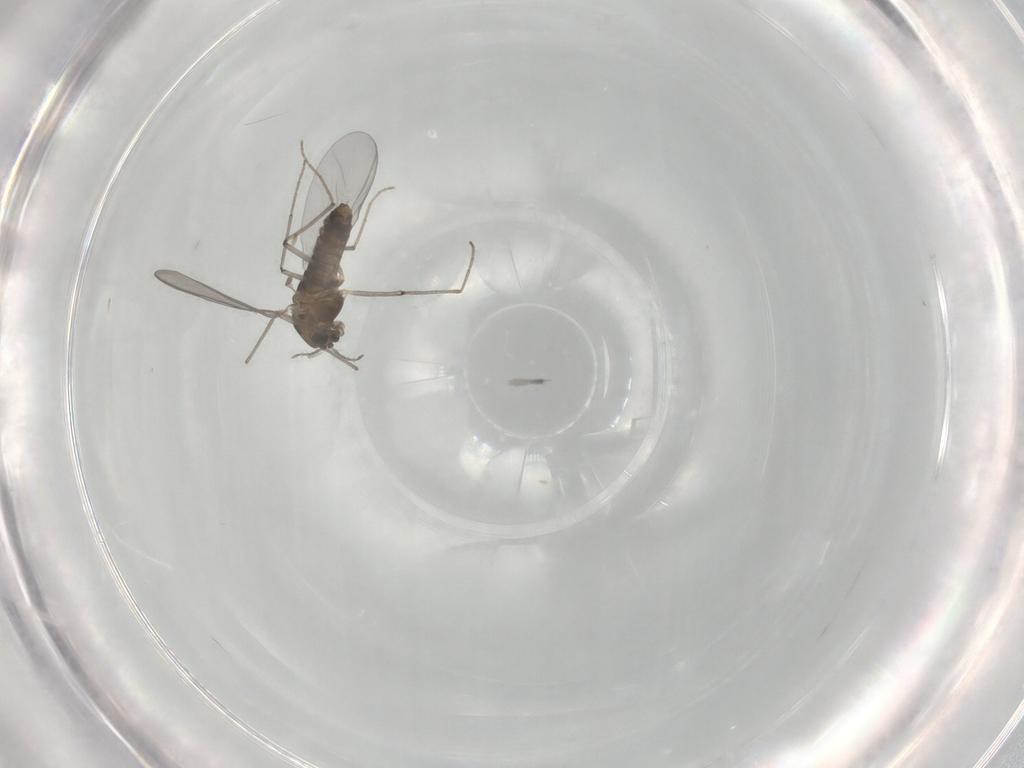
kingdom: Animalia
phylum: Arthropoda
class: Insecta
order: Diptera
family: Chironomidae
